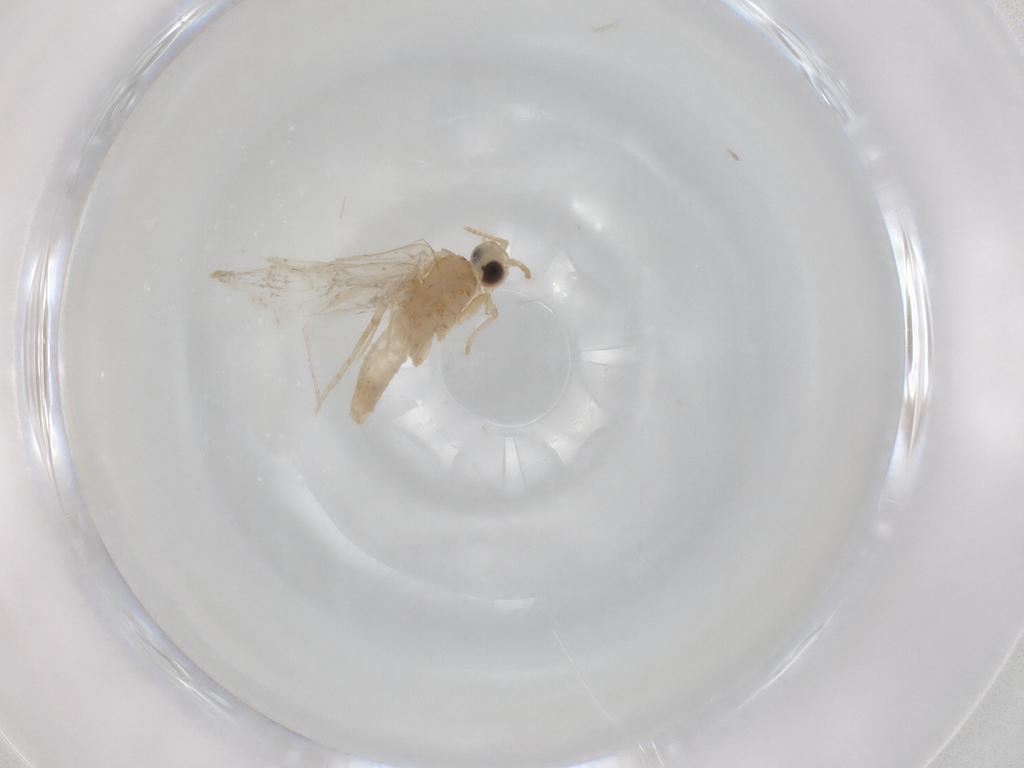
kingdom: Animalia
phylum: Arthropoda
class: Insecta
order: Lepidoptera
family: Psychidae
